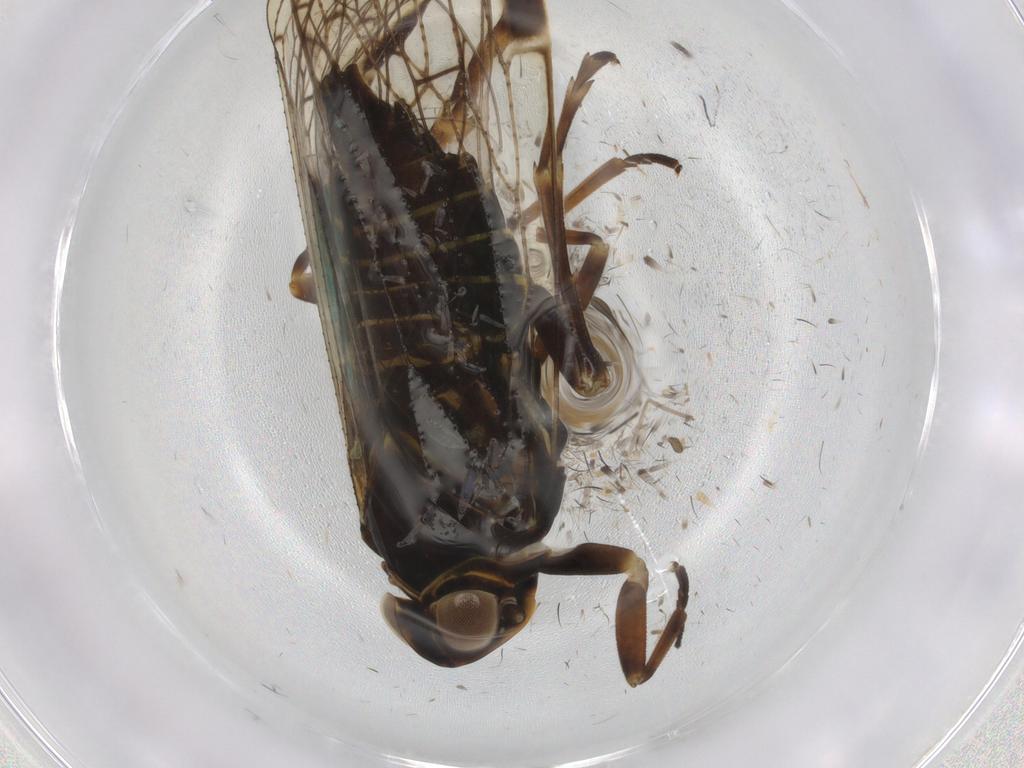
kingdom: Animalia
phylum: Arthropoda
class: Insecta
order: Hemiptera
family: Cixiidae
